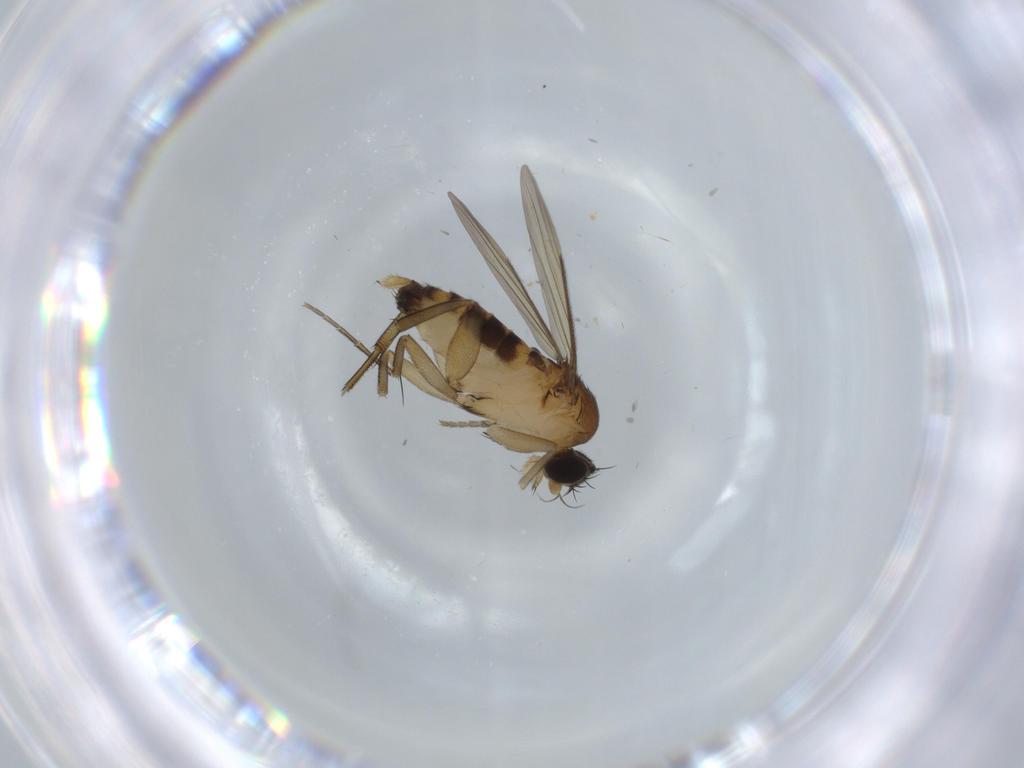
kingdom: Animalia
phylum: Arthropoda
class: Insecta
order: Diptera
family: Phoridae
